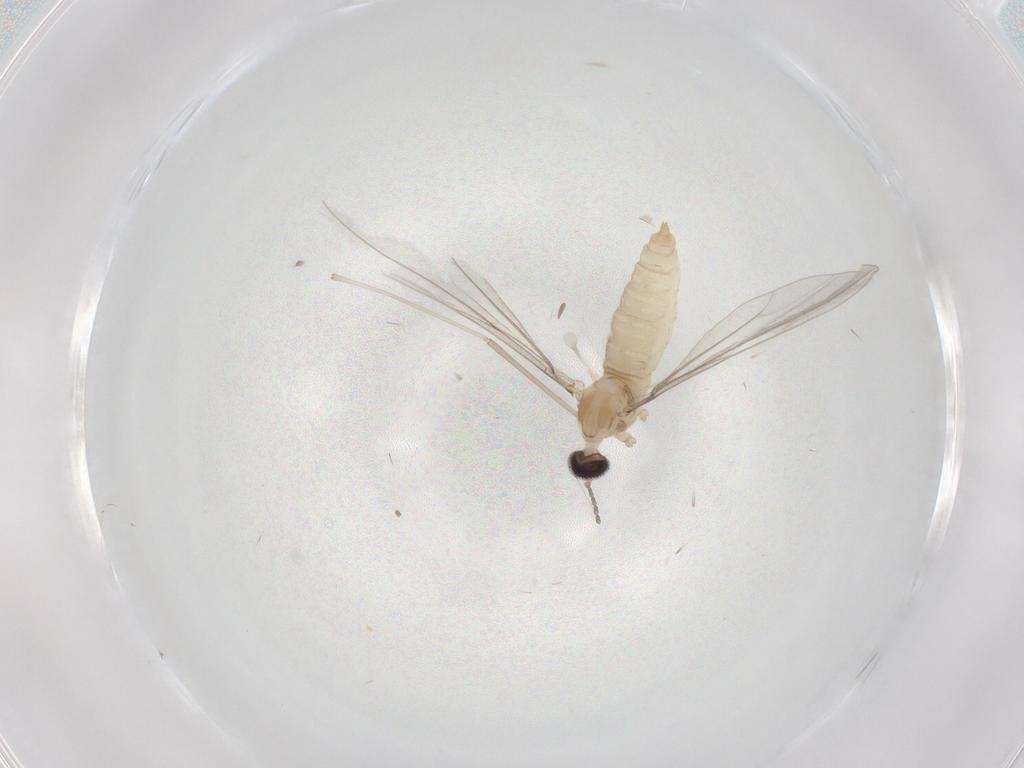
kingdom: Animalia
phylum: Arthropoda
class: Insecta
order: Diptera
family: Cecidomyiidae
